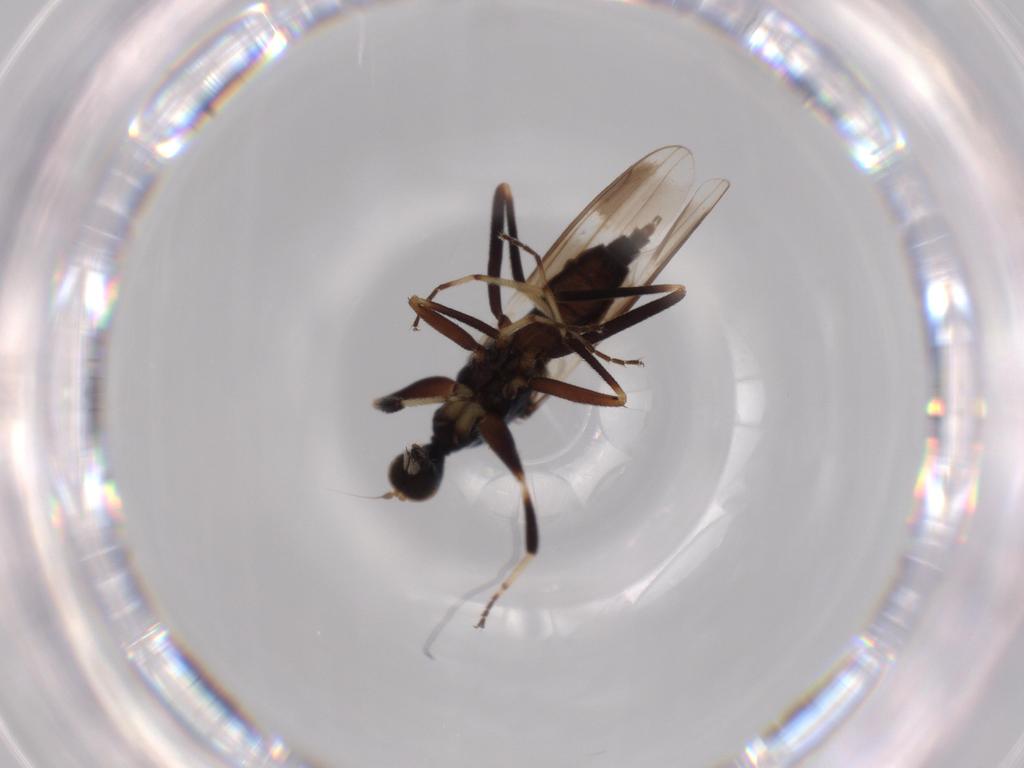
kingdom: Animalia
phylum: Arthropoda
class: Insecta
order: Diptera
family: Hybotidae
